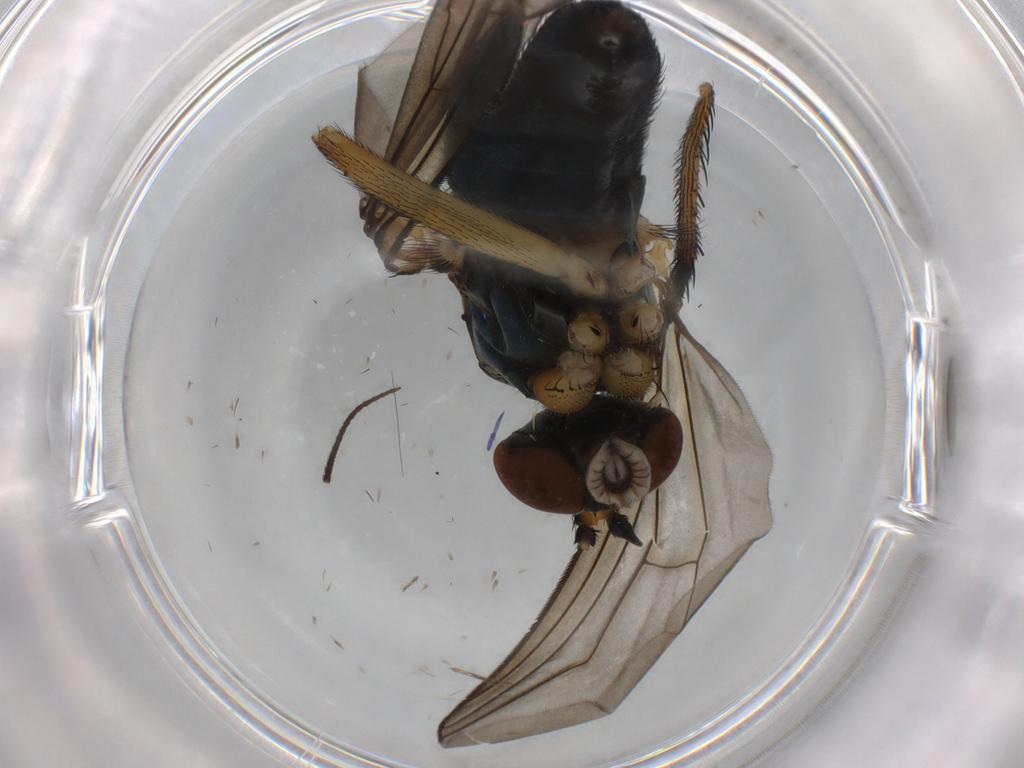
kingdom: Animalia
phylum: Arthropoda
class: Insecta
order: Diptera
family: Dolichopodidae
